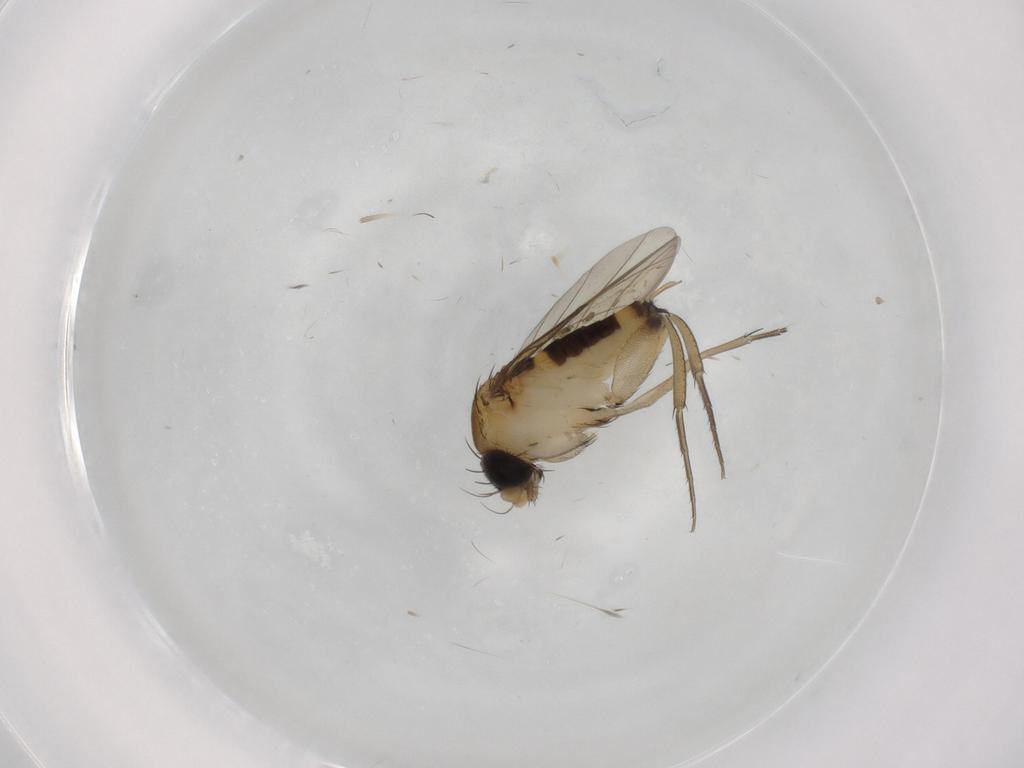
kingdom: Animalia
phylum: Arthropoda
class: Insecta
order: Diptera
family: Phoridae
